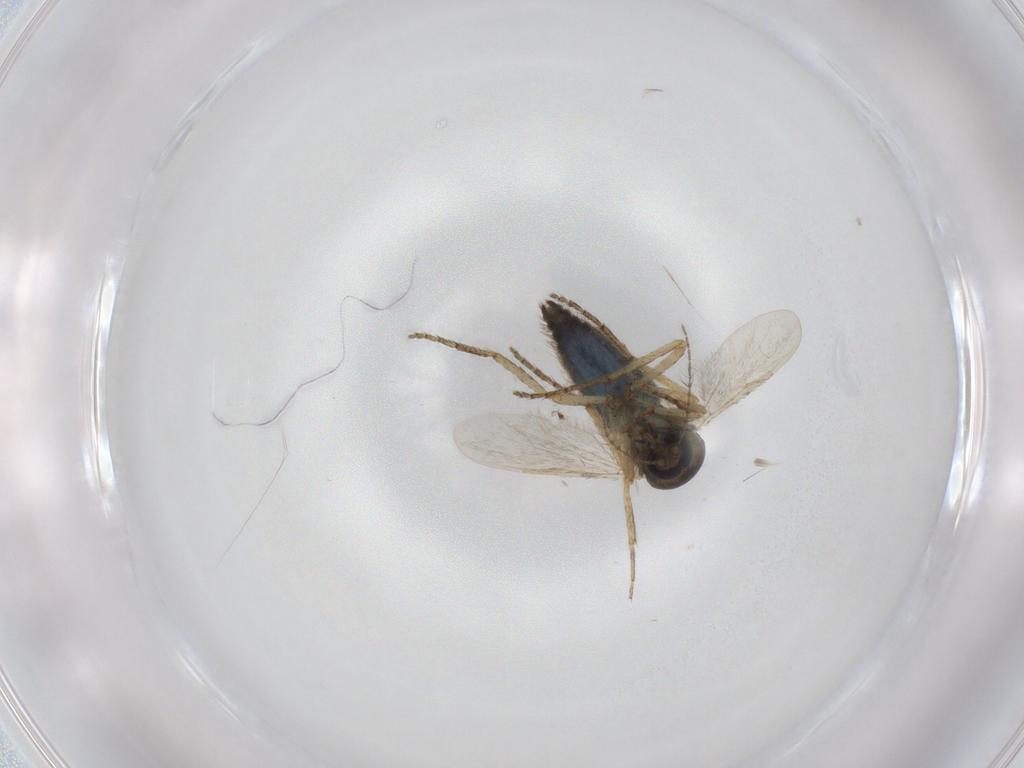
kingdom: Animalia
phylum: Arthropoda
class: Insecta
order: Diptera
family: Ceratopogonidae
